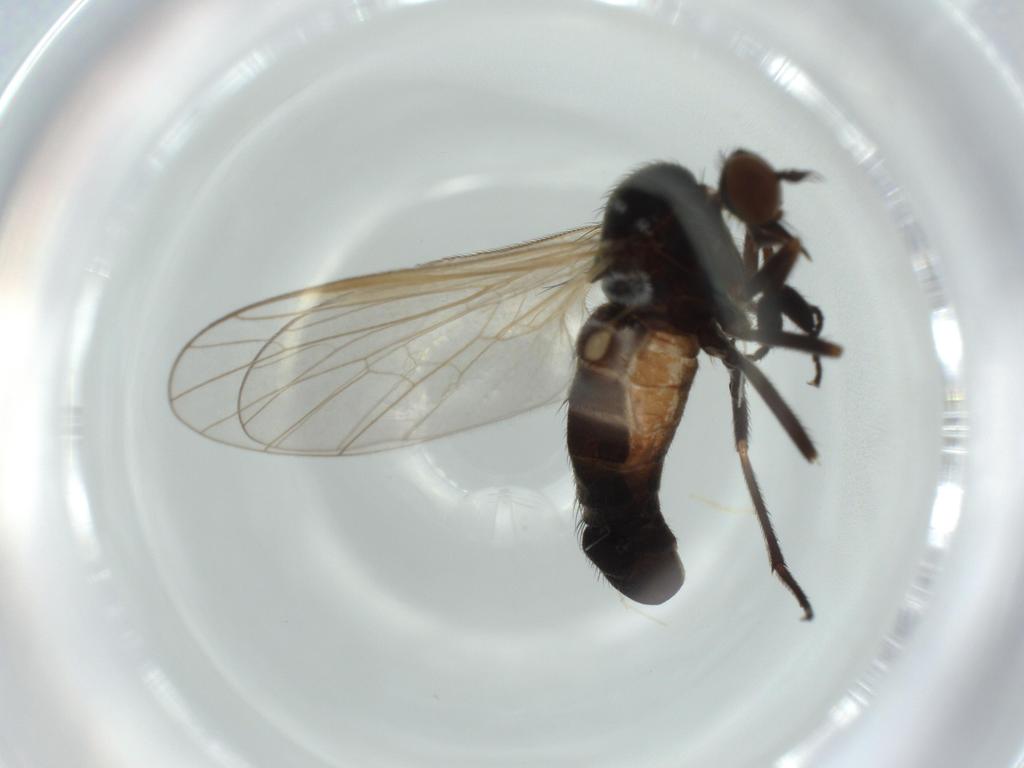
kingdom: Animalia
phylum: Arthropoda
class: Insecta
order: Diptera
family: Empididae
